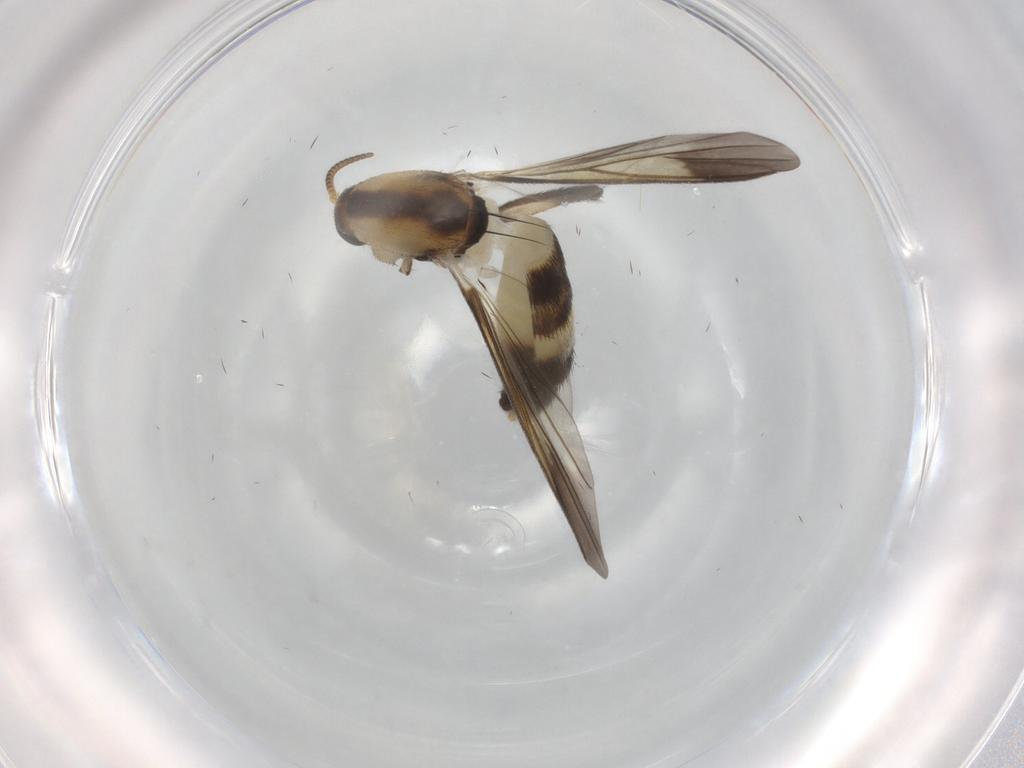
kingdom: Animalia
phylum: Arthropoda
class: Insecta
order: Diptera
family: Mycetophilidae
